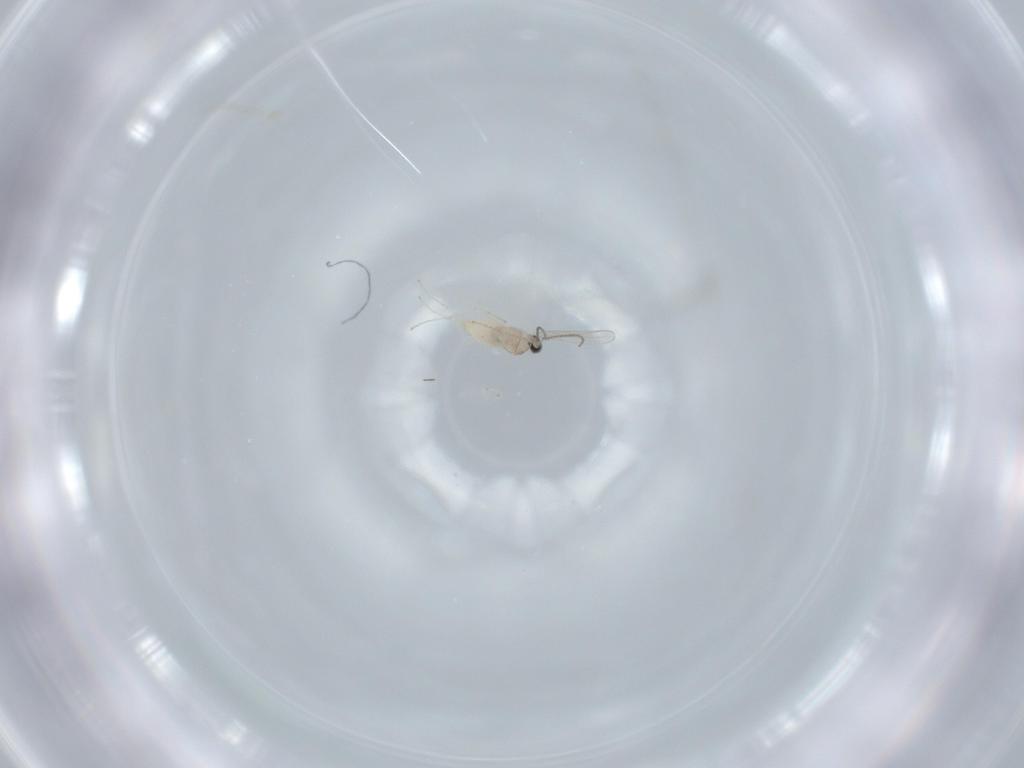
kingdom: Animalia
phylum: Arthropoda
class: Insecta
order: Diptera
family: Cecidomyiidae
